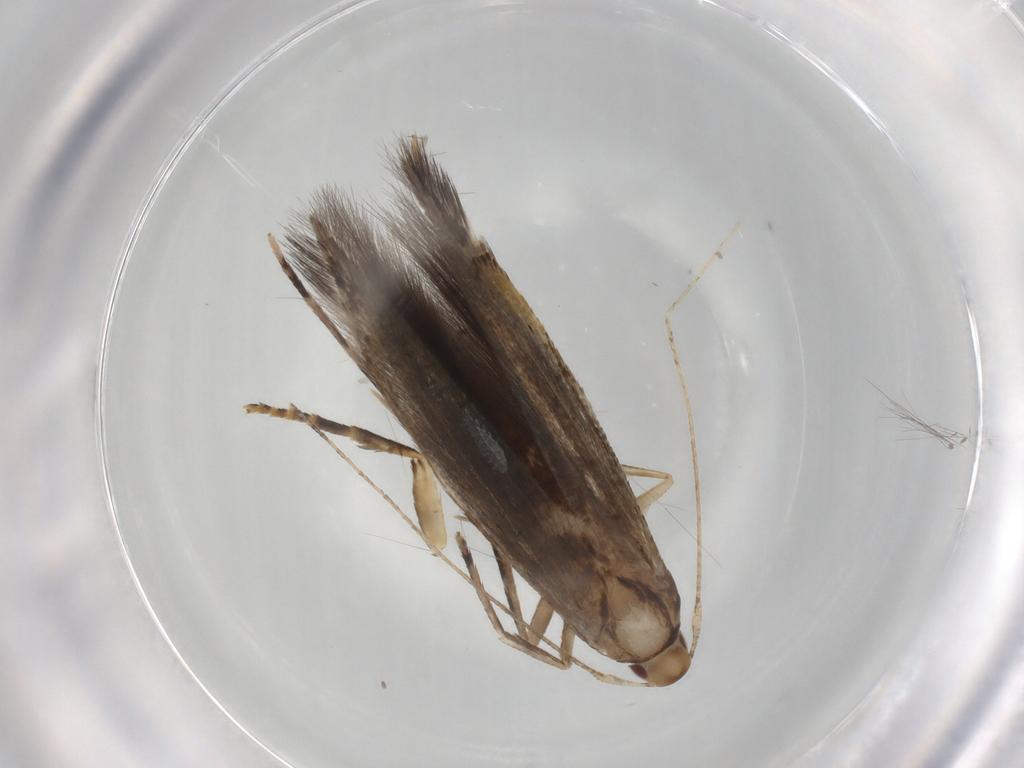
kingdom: Animalia
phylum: Arthropoda
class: Insecta
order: Lepidoptera
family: Cosmopterigidae
